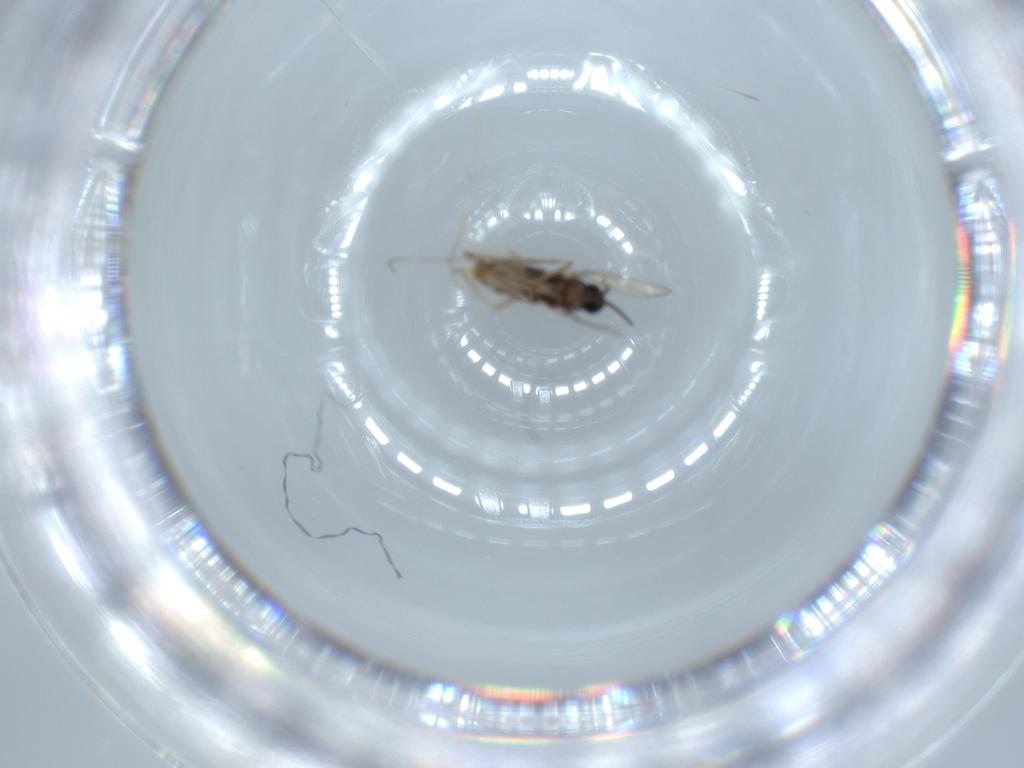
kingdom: Animalia
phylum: Arthropoda
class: Insecta
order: Diptera
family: Cecidomyiidae
